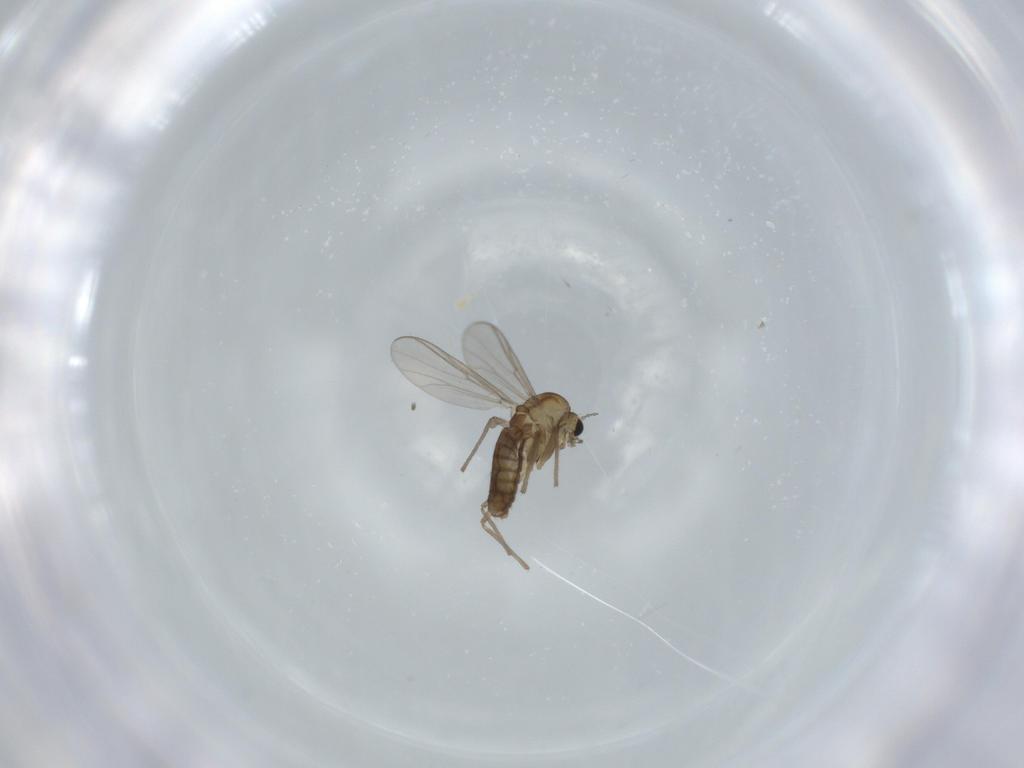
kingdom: Animalia
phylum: Arthropoda
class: Insecta
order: Diptera
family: Chironomidae
